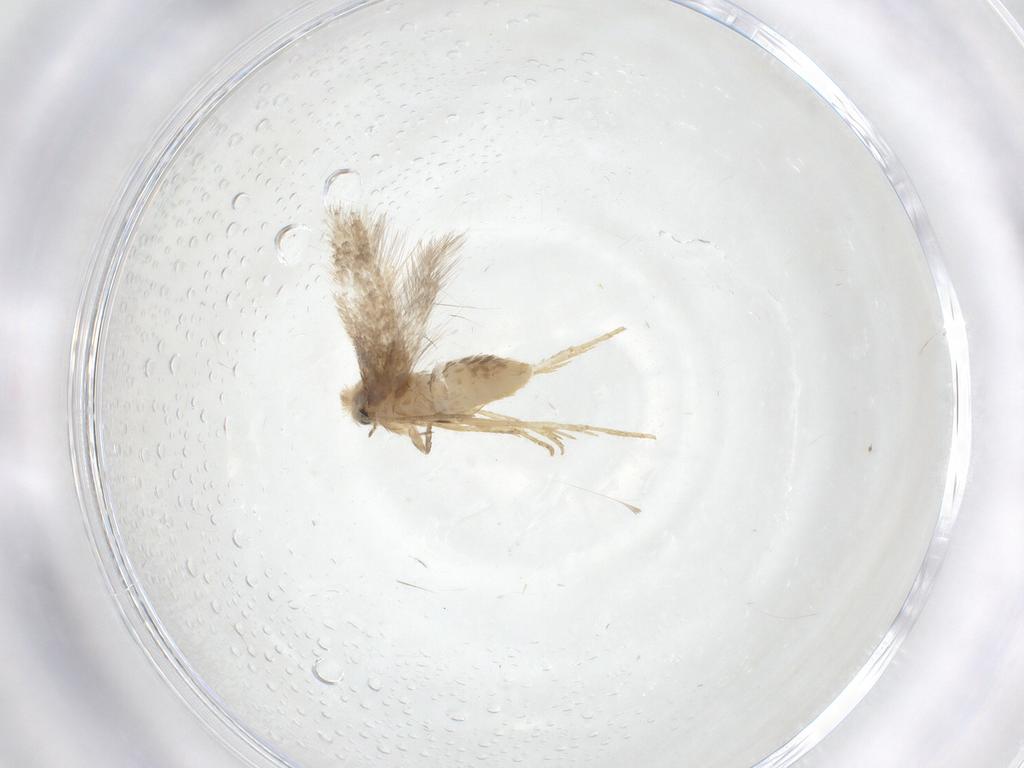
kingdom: Animalia
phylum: Arthropoda
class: Insecta
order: Lepidoptera
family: Nepticulidae
